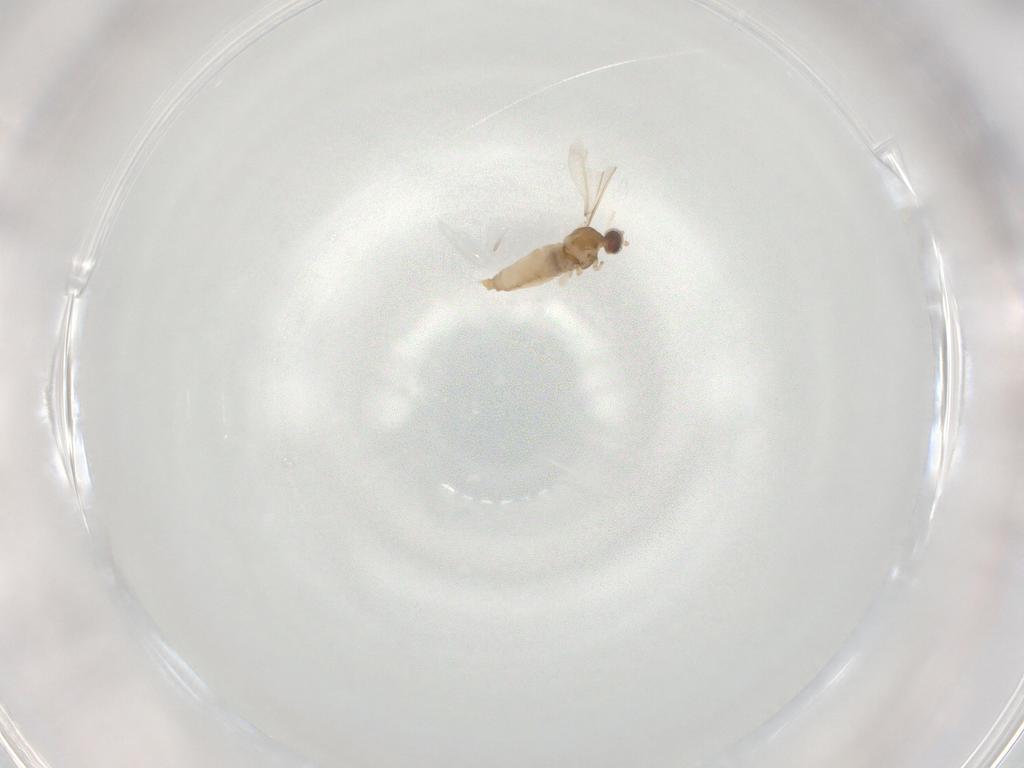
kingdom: Animalia
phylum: Arthropoda
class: Insecta
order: Diptera
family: Cecidomyiidae
